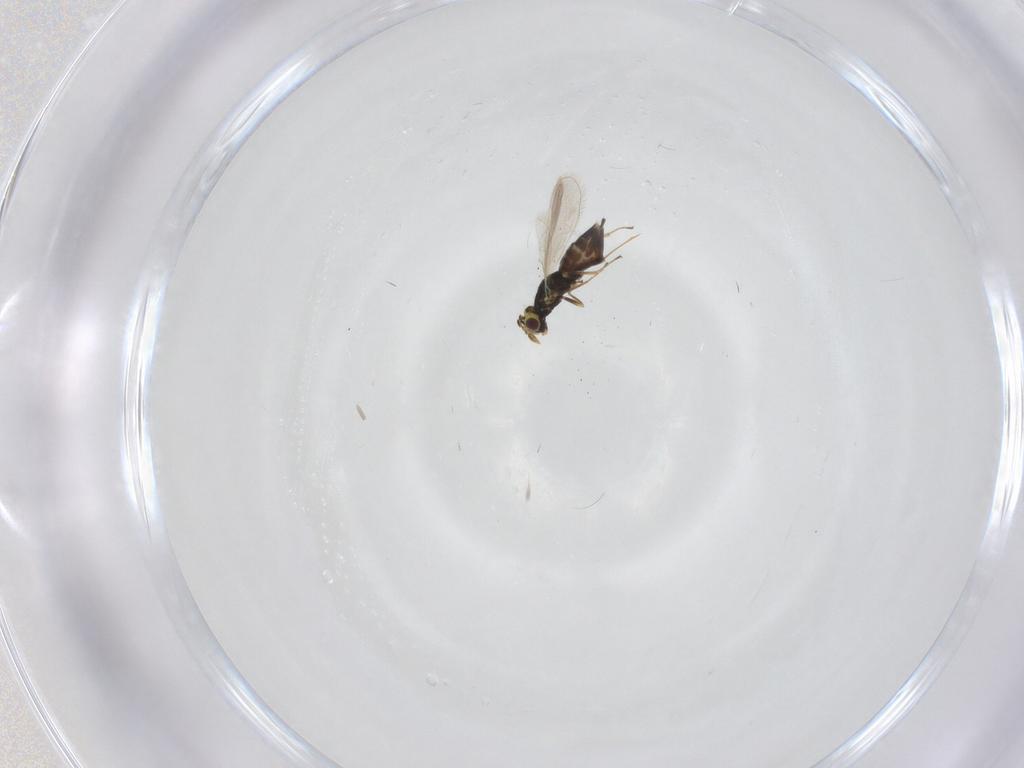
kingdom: Animalia
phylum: Arthropoda
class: Insecta
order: Hymenoptera
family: Eulophidae
